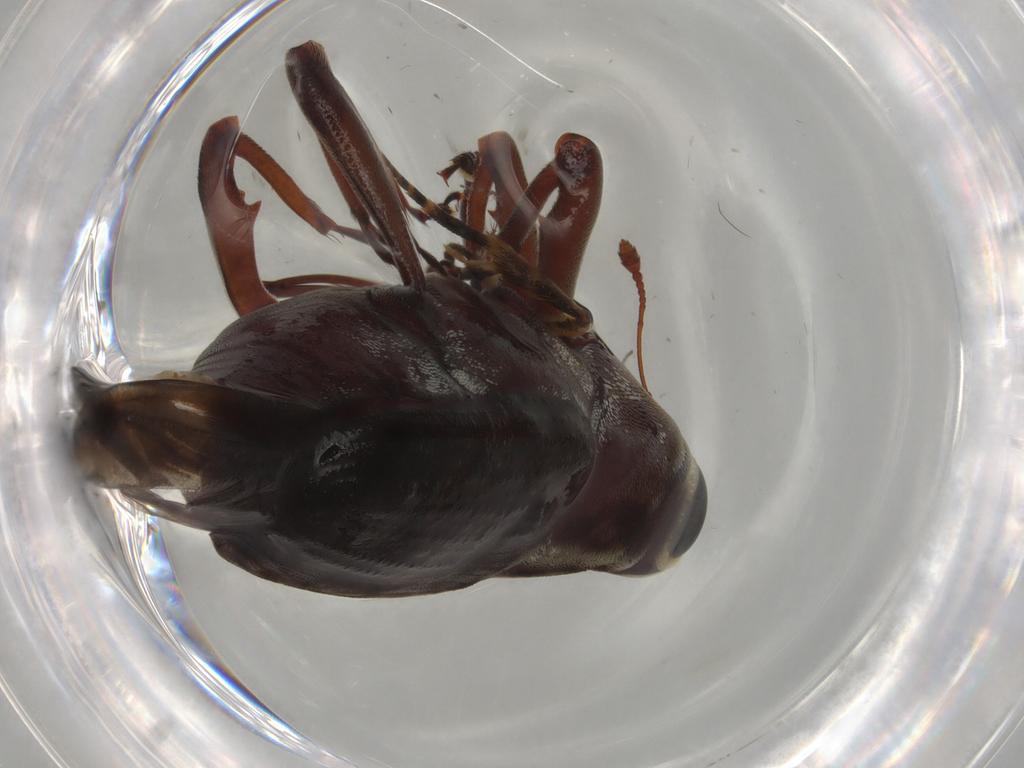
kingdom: Animalia
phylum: Arthropoda
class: Insecta
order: Coleoptera
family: Curculionidae
